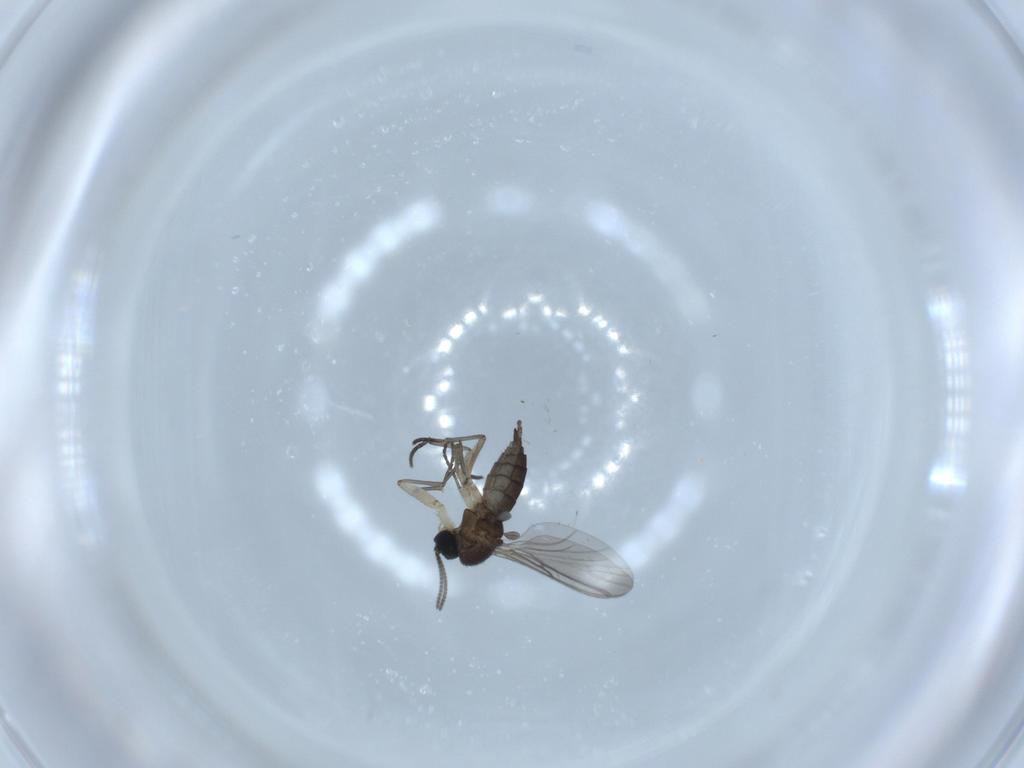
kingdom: Animalia
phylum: Arthropoda
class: Insecta
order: Diptera
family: Sciaridae
